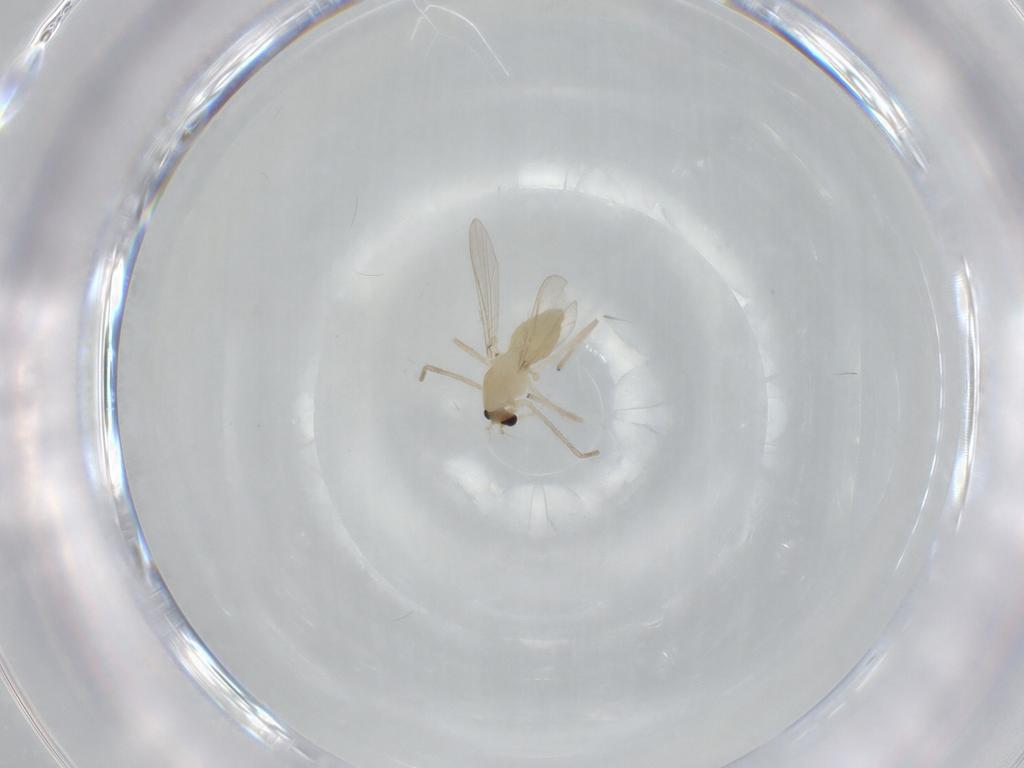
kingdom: Animalia
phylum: Arthropoda
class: Insecta
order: Diptera
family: Chironomidae
